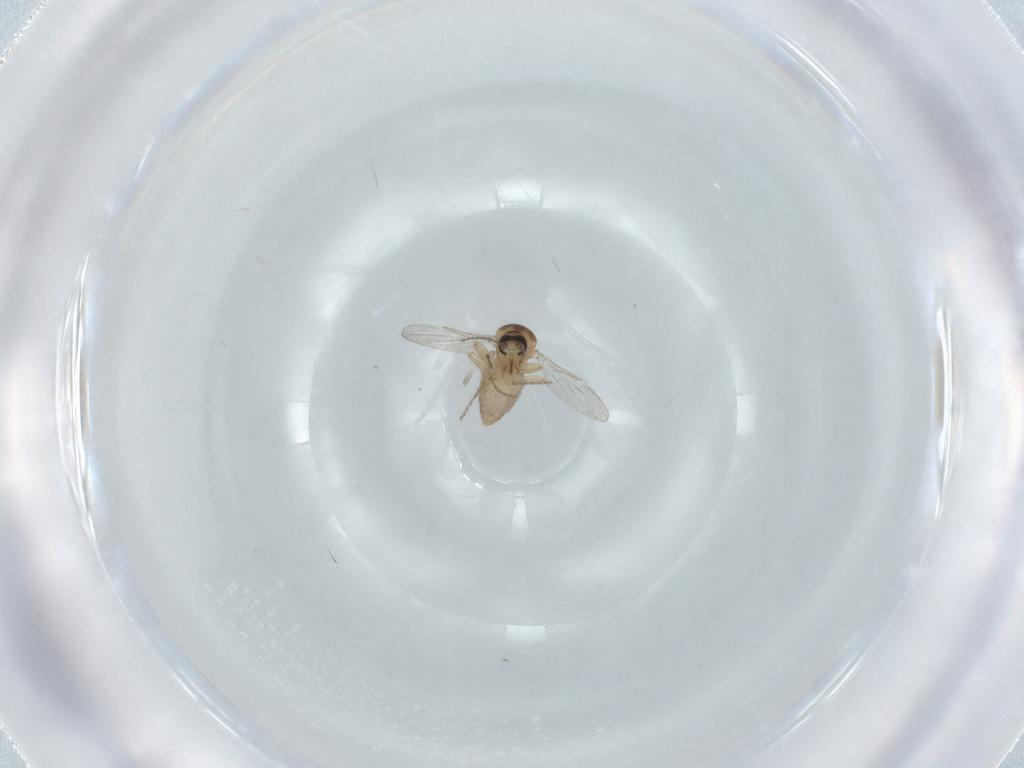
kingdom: Animalia
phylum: Arthropoda
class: Insecta
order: Diptera
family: Ceratopogonidae
